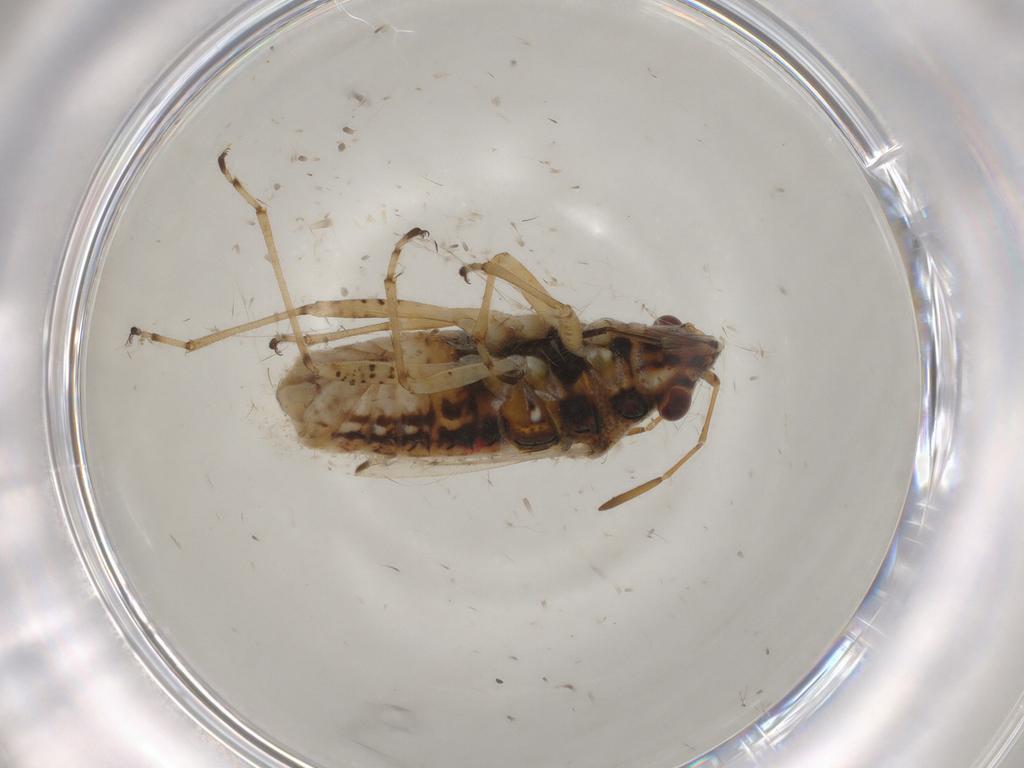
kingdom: Animalia
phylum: Arthropoda
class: Insecta
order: Hemiptera
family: Lygaeidae
